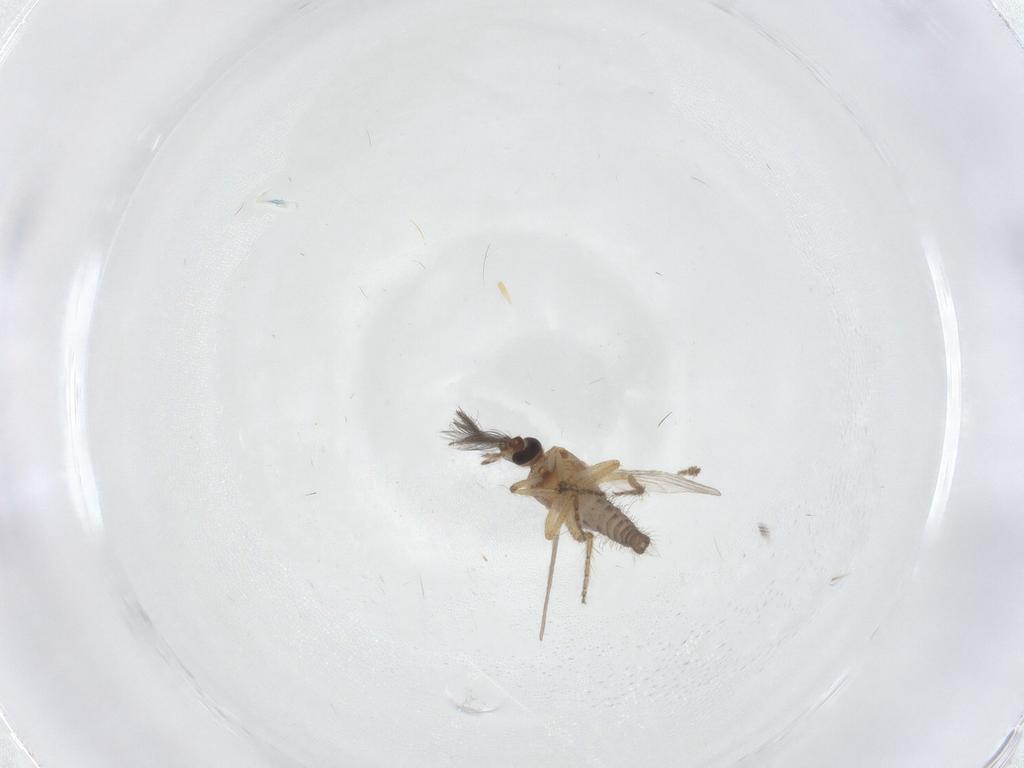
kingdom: Animalia
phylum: Arthropoda
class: Insecta
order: Diptera
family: Ceratopogonidae
